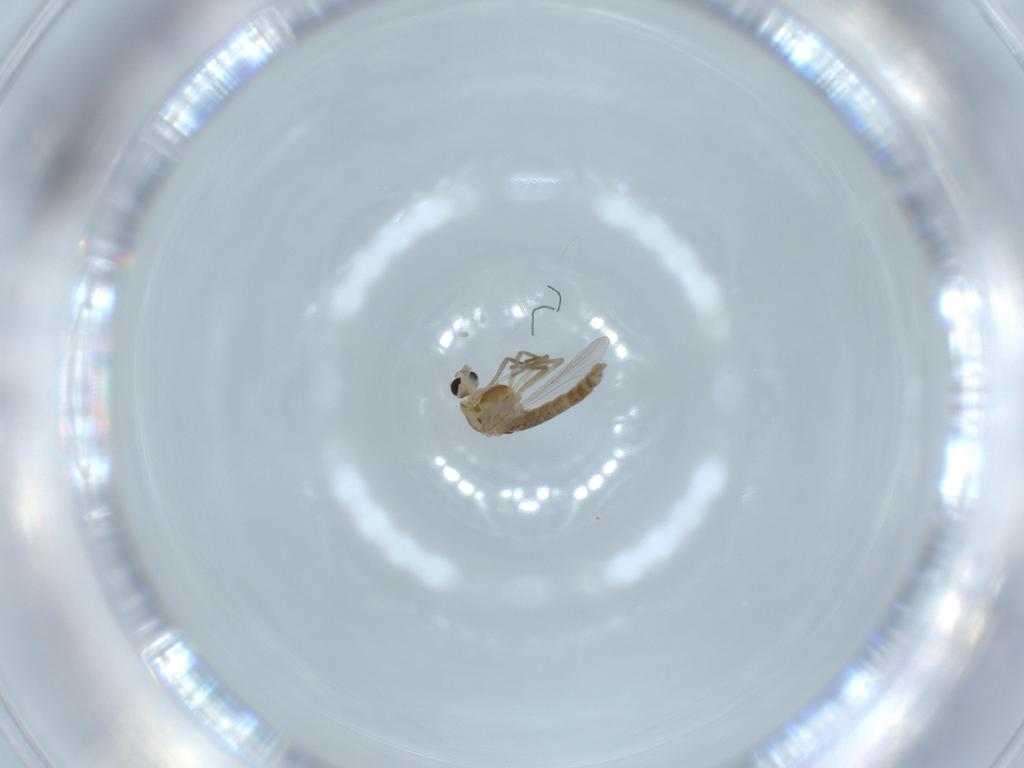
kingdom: Animalia
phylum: Arthropoda
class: Insecta
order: Diptera
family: Chironomidae
